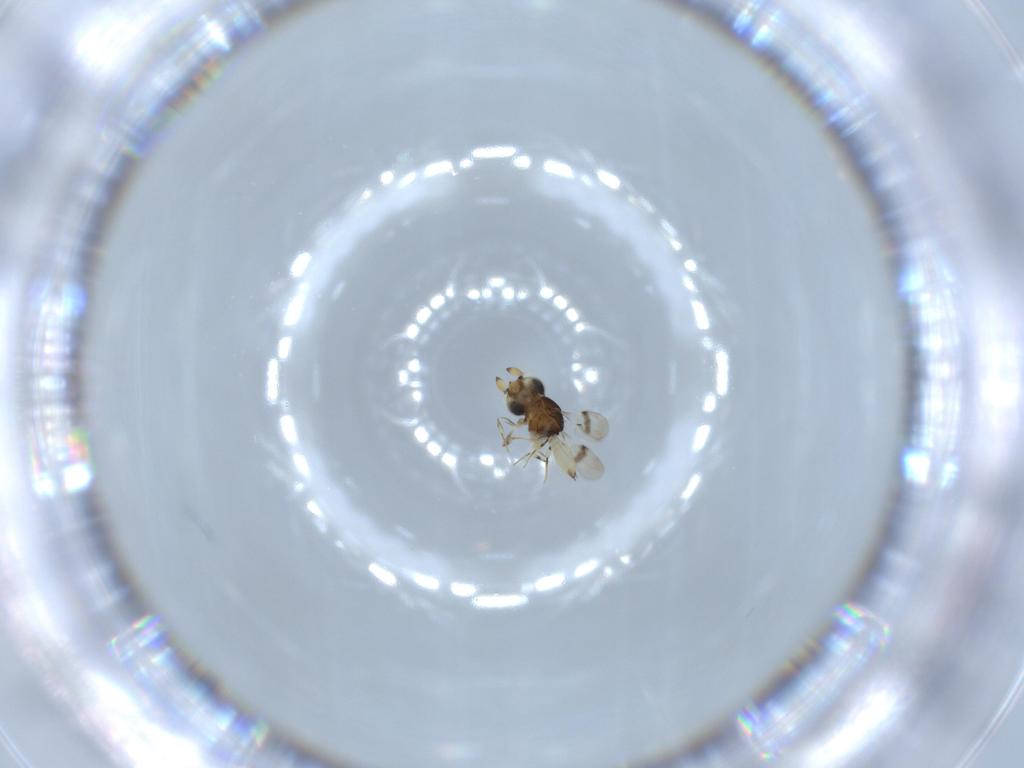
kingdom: Animalia
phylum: Arthropoda
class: Insecta
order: Hymenoptera
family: Scelionidae
